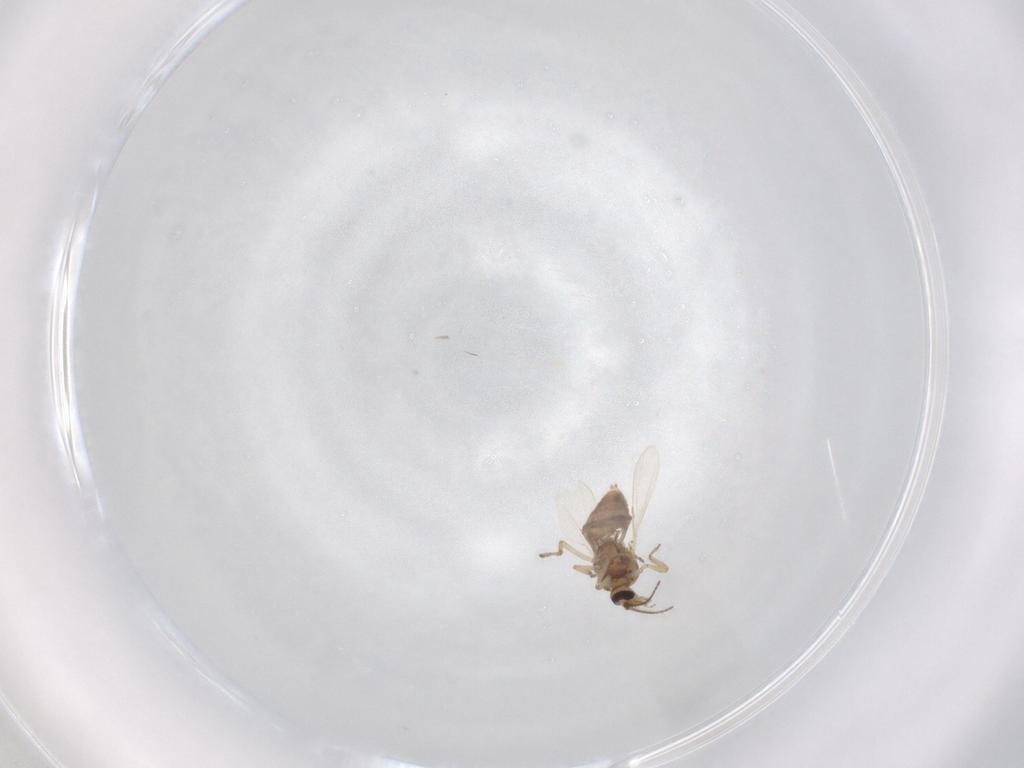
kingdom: Animalia
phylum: Arthropoda
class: Insecta
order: Diptera
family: Ceratopogonidae
